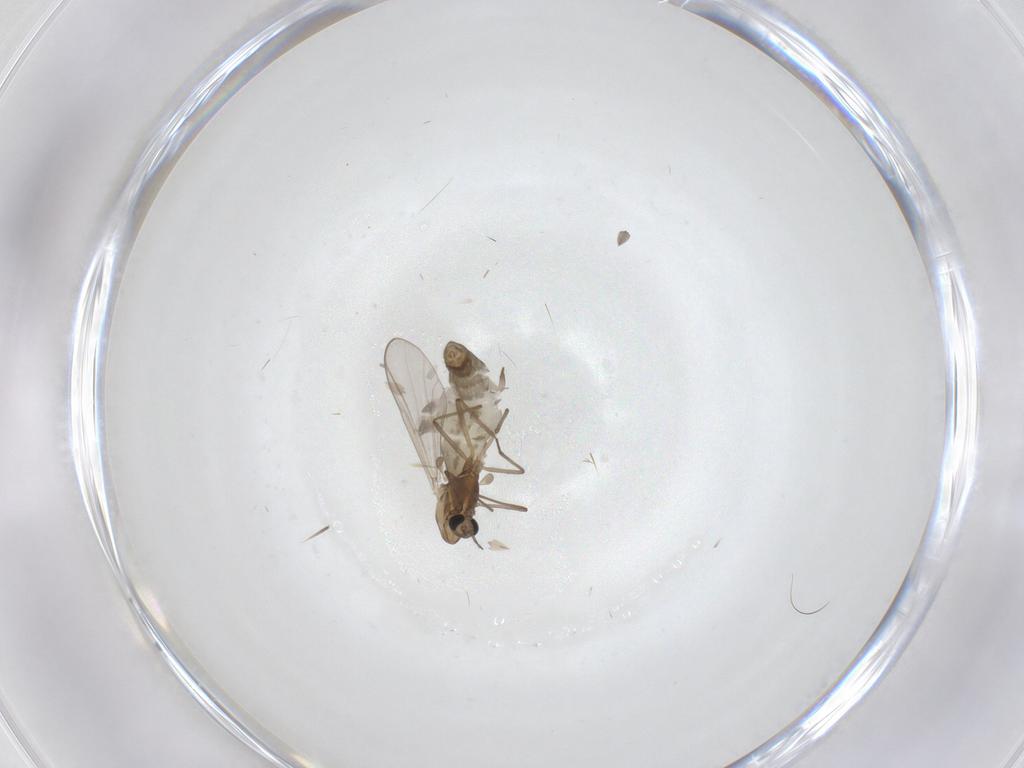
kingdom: Animalia
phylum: Arthropoda
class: Insecta
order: Diptera
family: Chironomidae
